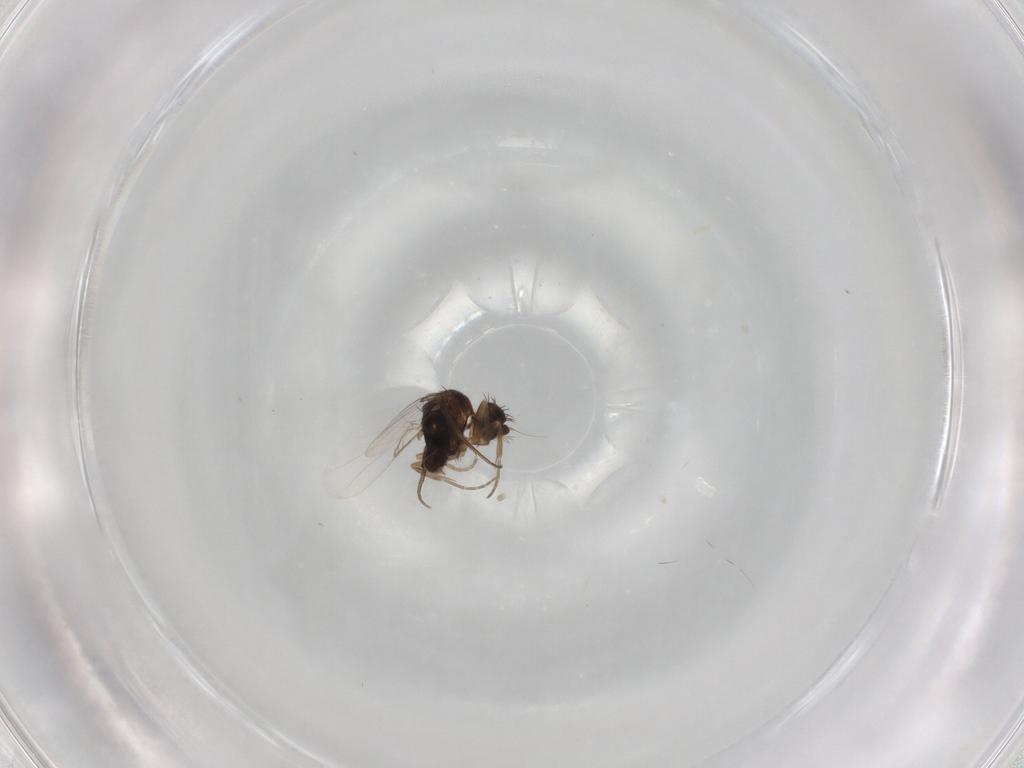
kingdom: Animalia
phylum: Arthropoda
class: Insecta
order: Diptera
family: Phoridae
